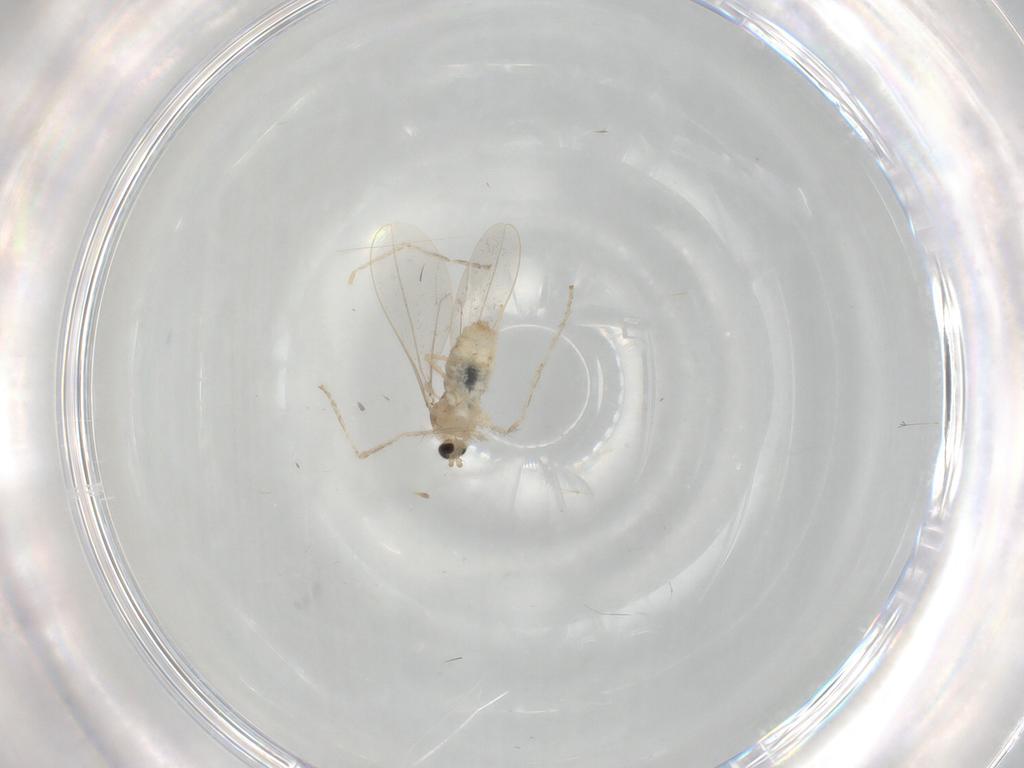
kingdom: Animalia
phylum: Arthropoda
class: Insecta
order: Diptera
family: Cecidomyiidae
